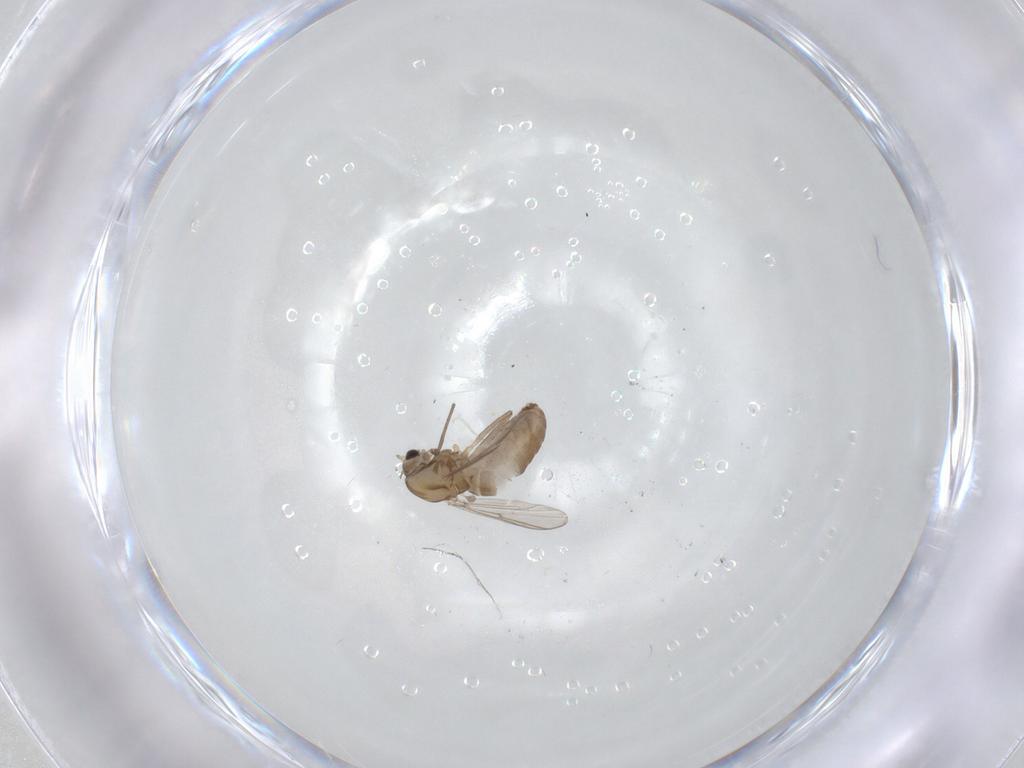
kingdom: Animalia
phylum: Arthropoda
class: Insecta
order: Diptera
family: Chironomidae
